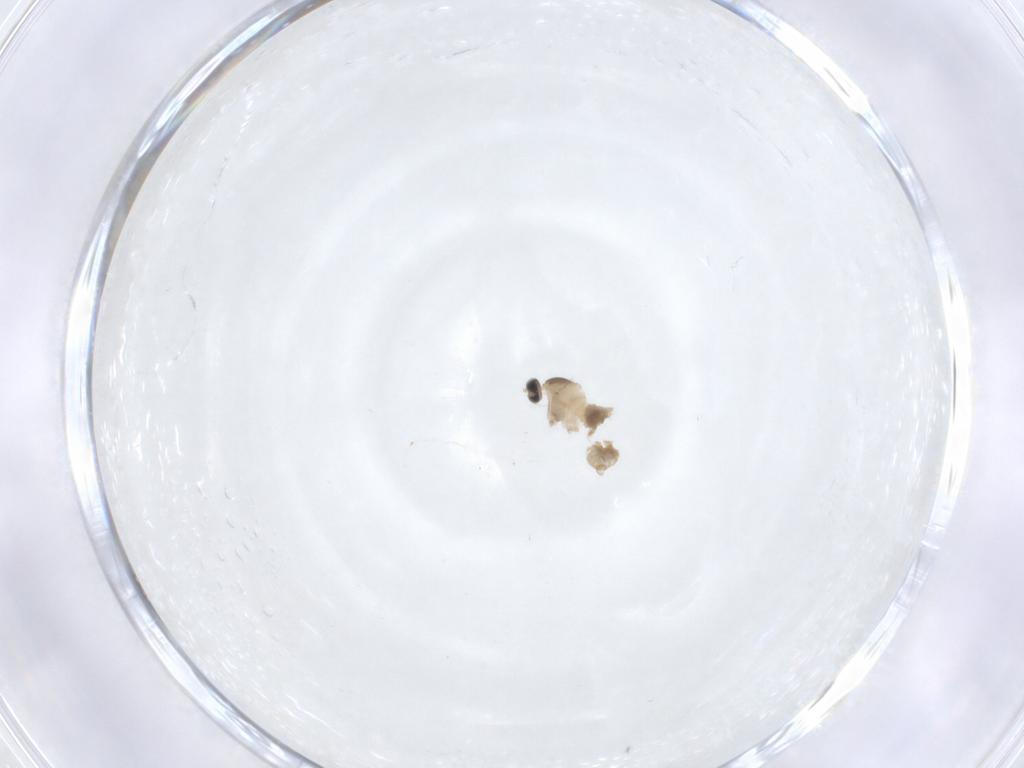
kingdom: Animalia
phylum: Arthropoda
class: Insecta
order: Diptera
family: Cecidomyiidae
